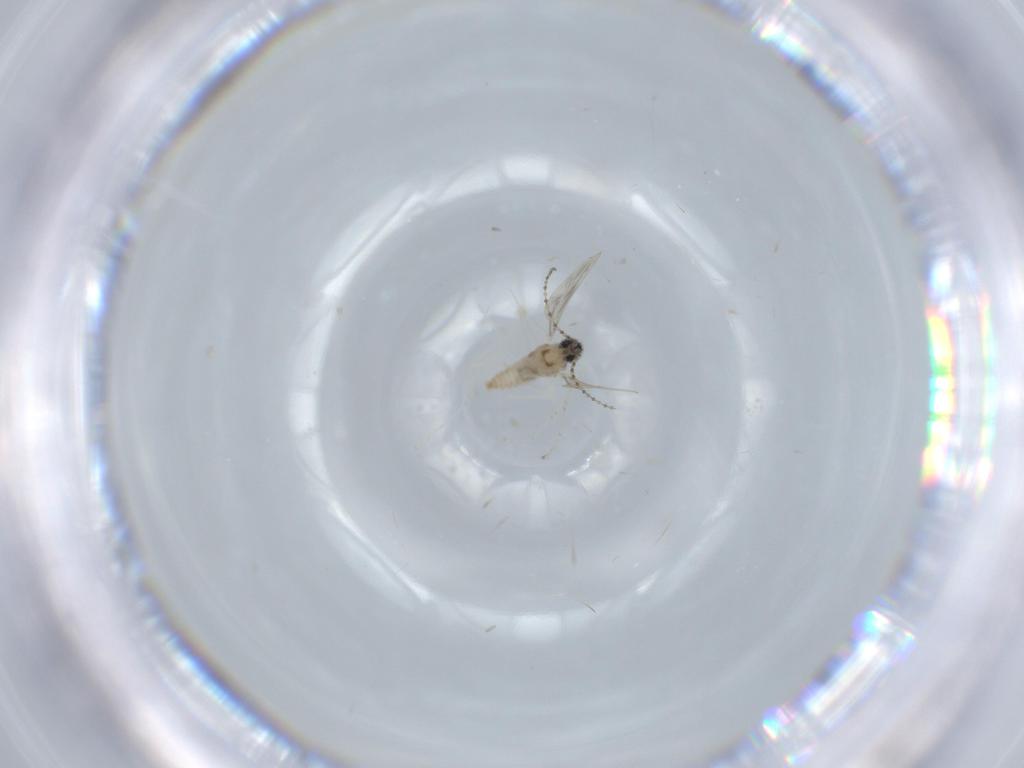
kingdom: Animalia
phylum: Arthropoda
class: Insecta
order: Diptera
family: Cecidomyiidae
